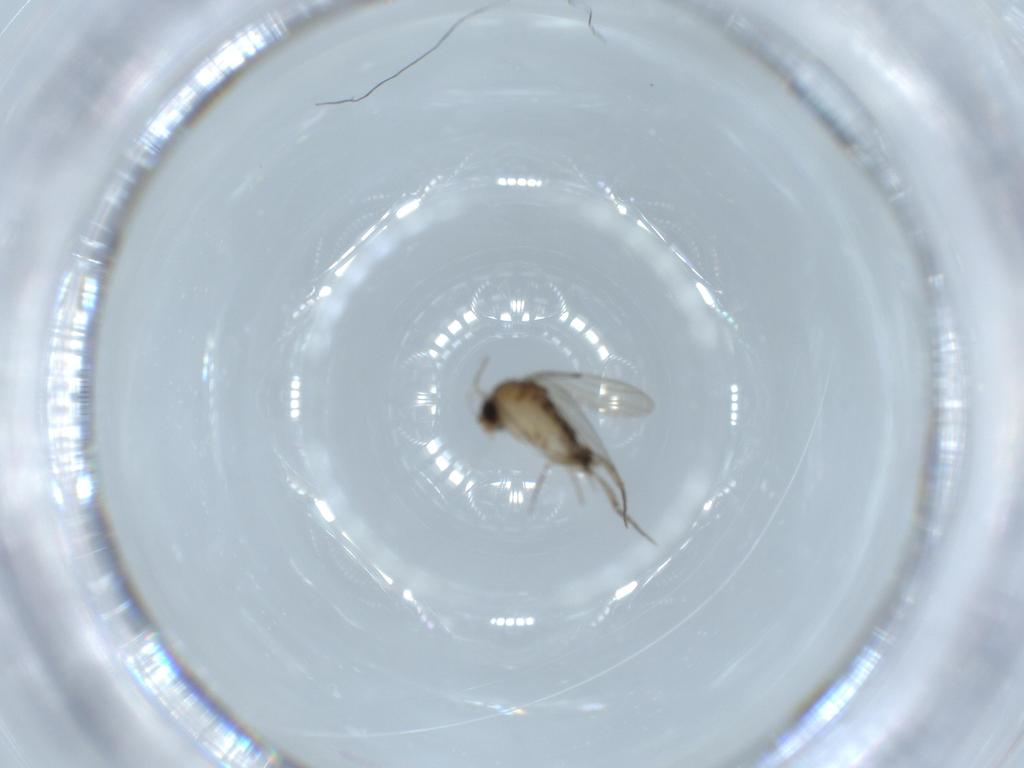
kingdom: Animalia
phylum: Arthropoda
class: Insecta
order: Diptera
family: Phoridae
